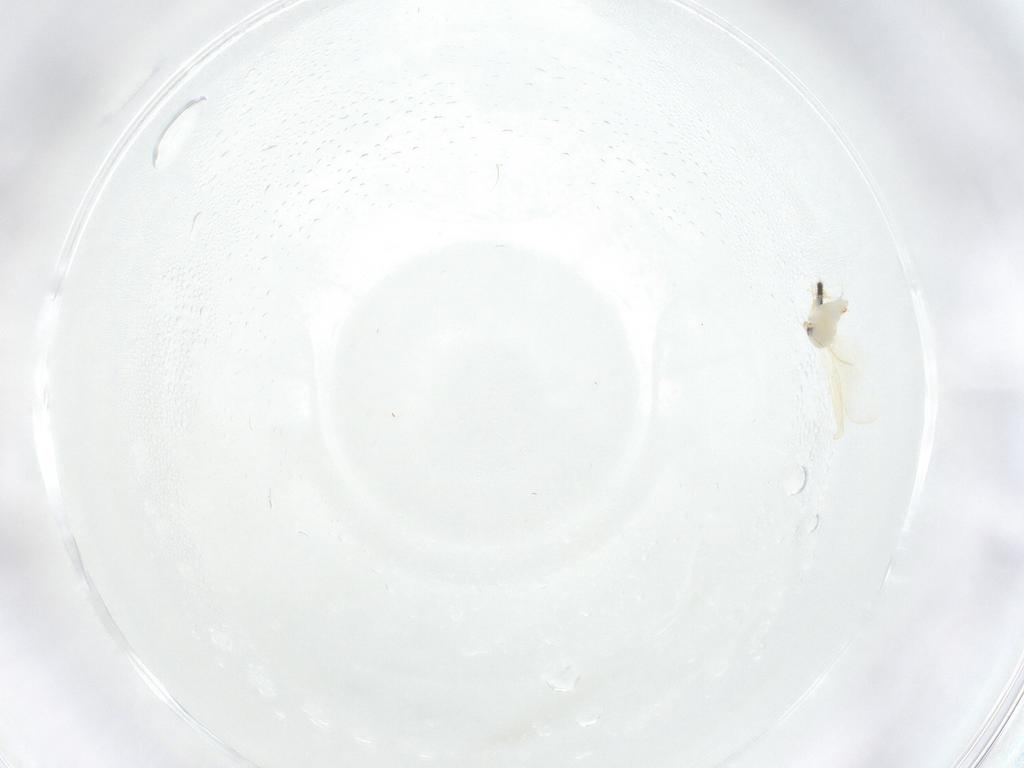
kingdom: Animalia
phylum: Arthropoda
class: Insecta
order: Hemiptera
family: Aleyrodidae
